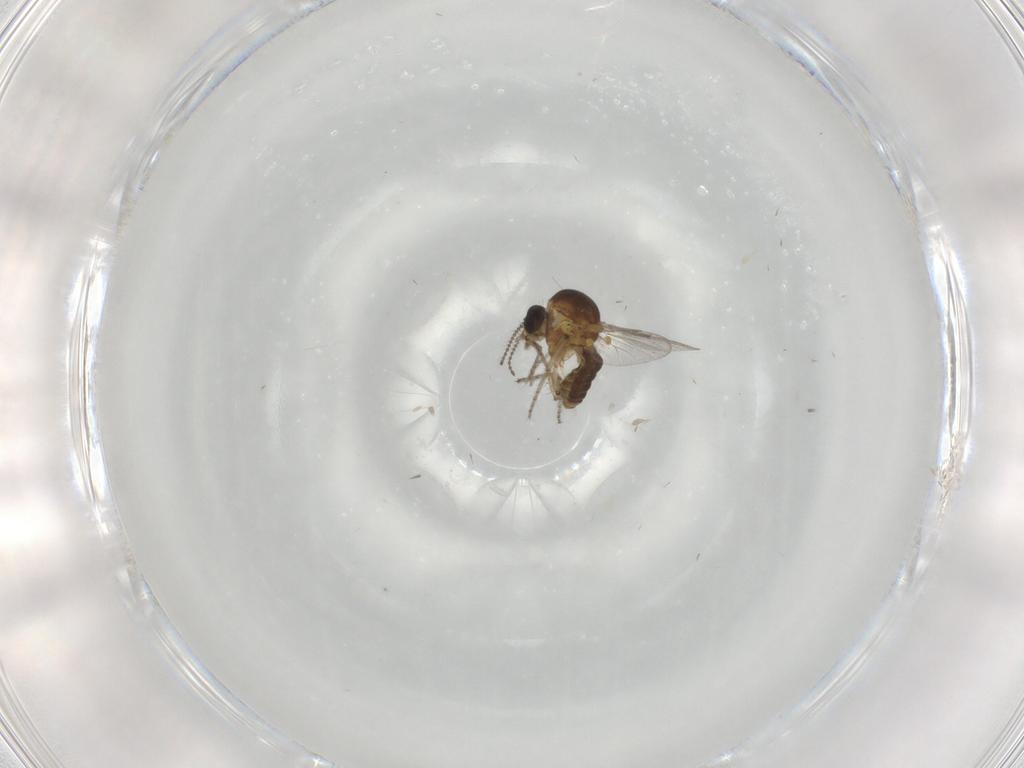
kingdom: Animalia
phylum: Arthropoda
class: Insecta
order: Diptera
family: Ceratopogonidae
